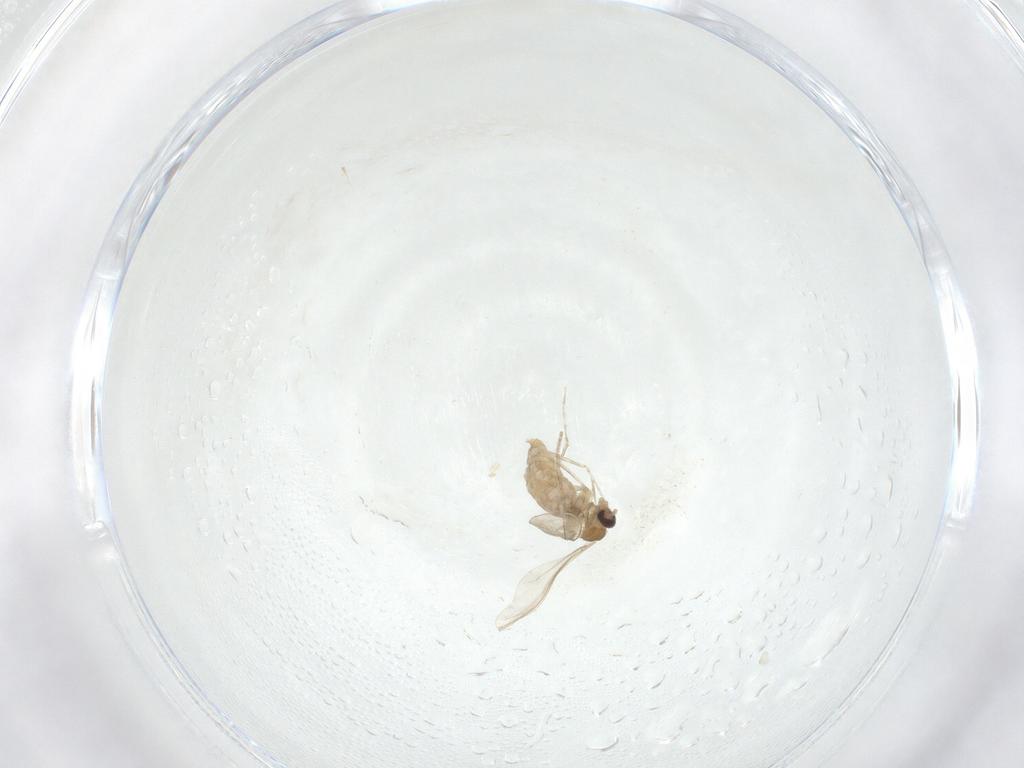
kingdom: Animalia
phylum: Arthropoda
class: Insecta
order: Diptera
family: Cecidomyiidae
